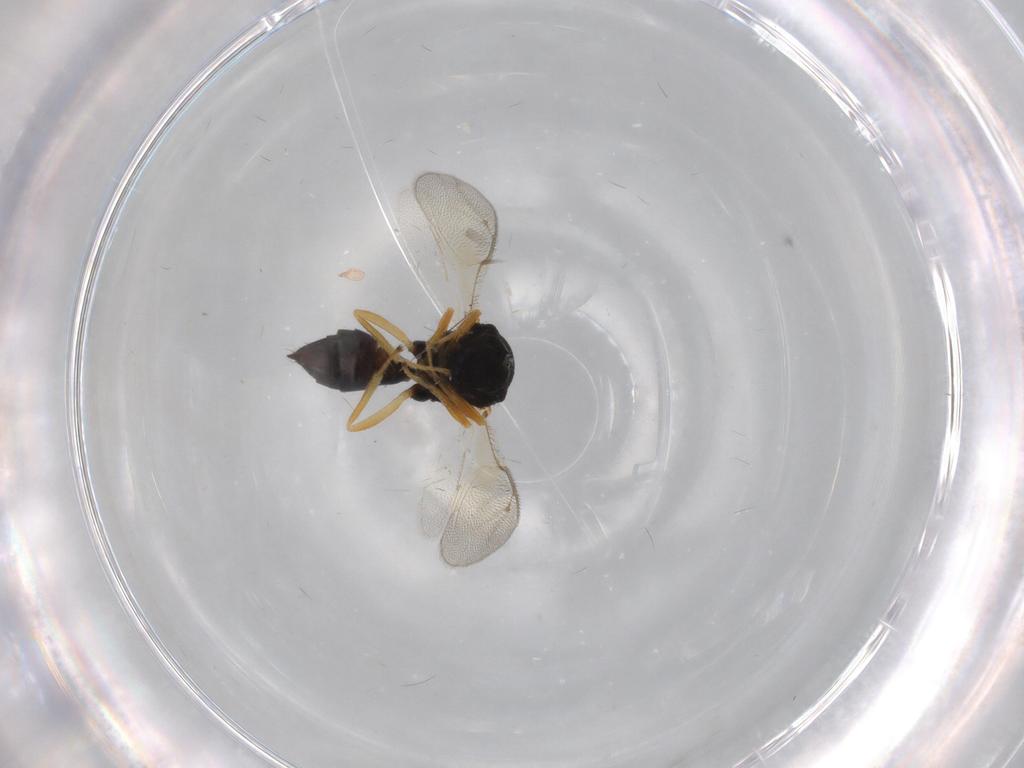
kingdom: Animalia
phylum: Arthropoda
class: Insecta
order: Hymenoptera
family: Pteromalidae
